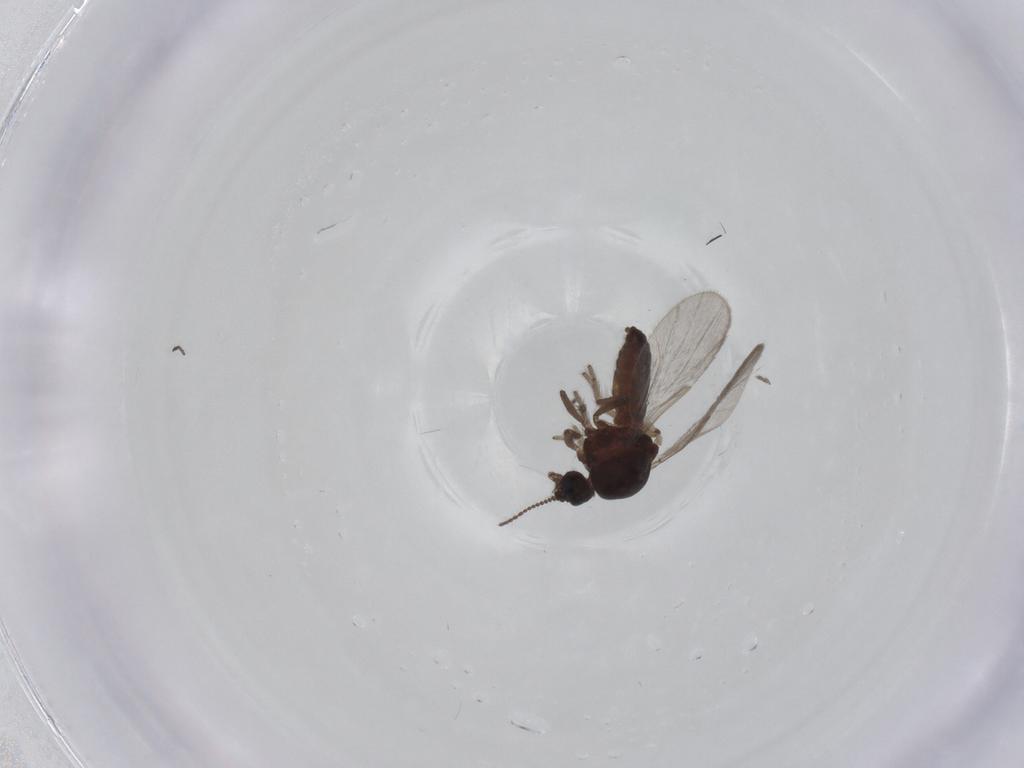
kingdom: Animalia
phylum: Arthropoda
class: Insecta
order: Diptera
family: Ceratopogonidae
